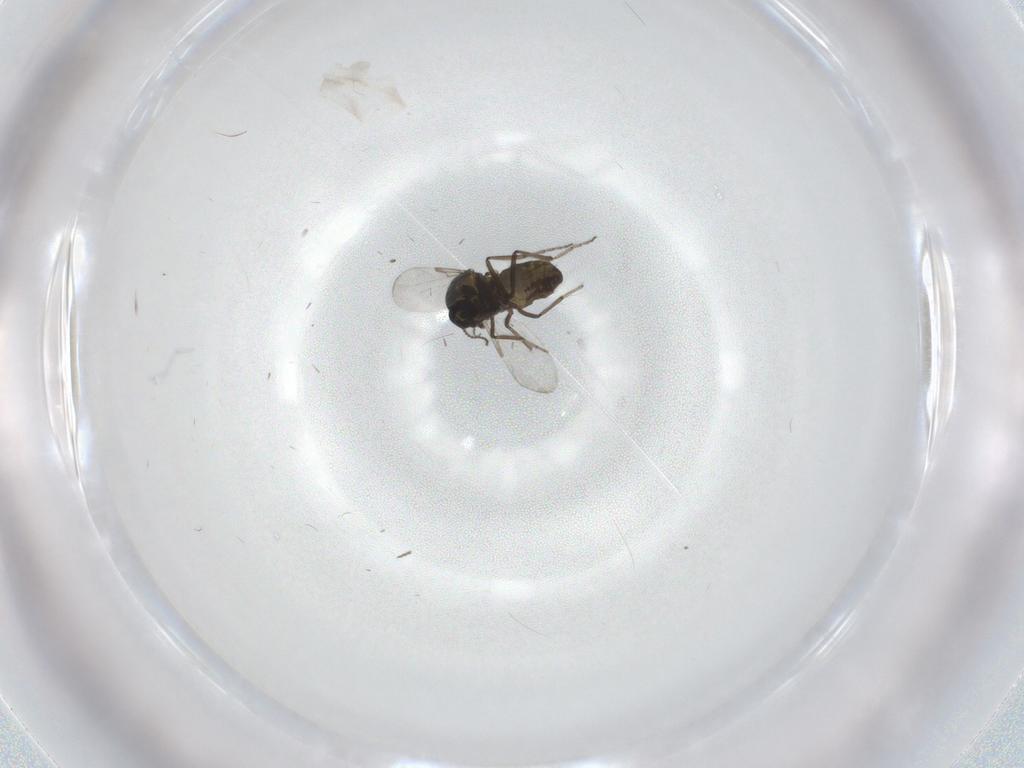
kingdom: Animalia
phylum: Arthropoda
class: Insecta
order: Diptera
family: Ceratopogonidae
